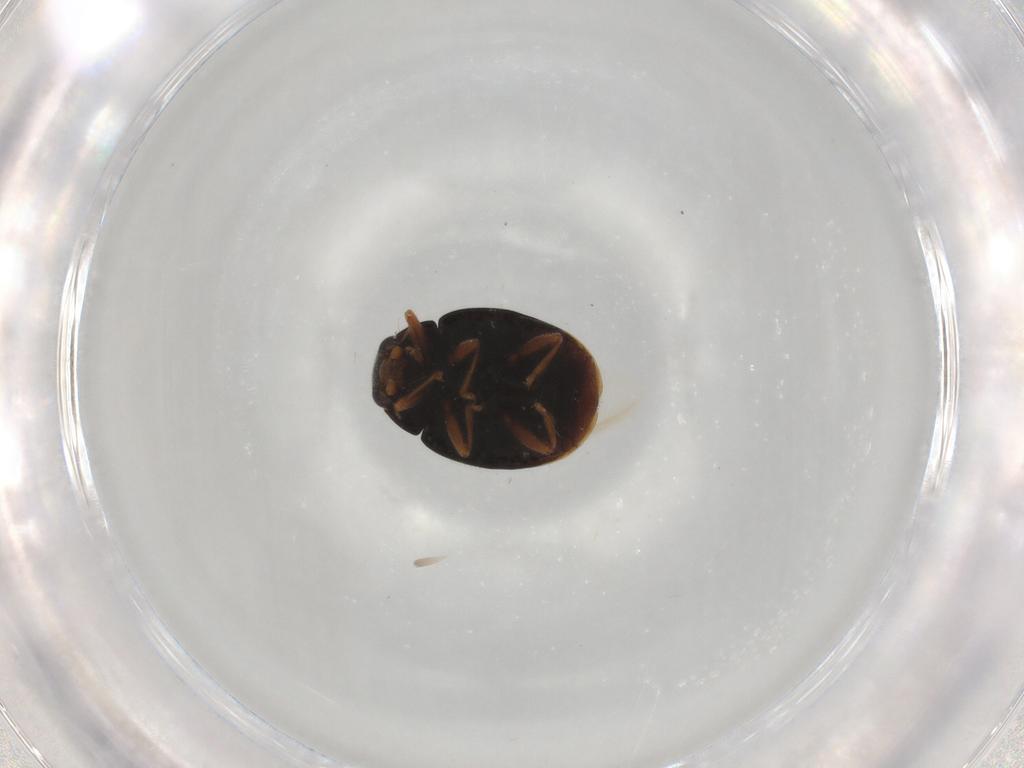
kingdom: Animalia
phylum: Arthropoda
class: Insecta
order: Coleoptera
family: Coccinellidae
